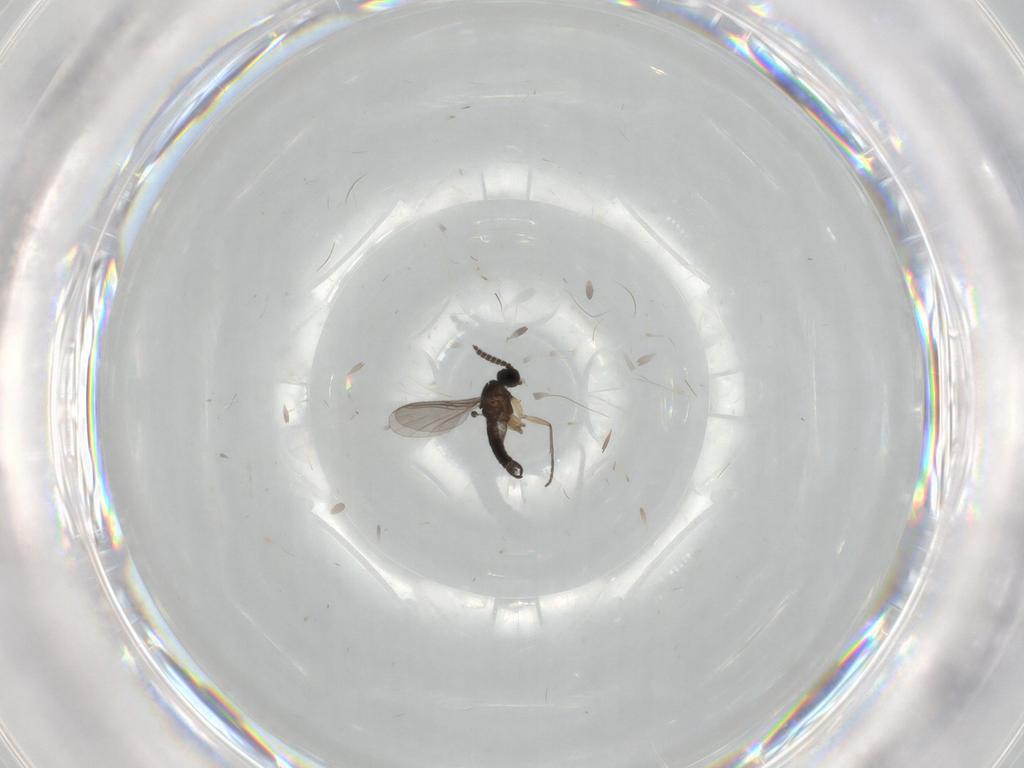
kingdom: Animalia
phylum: Arthropoda
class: Insecta
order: Diptera
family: Sciaridae
